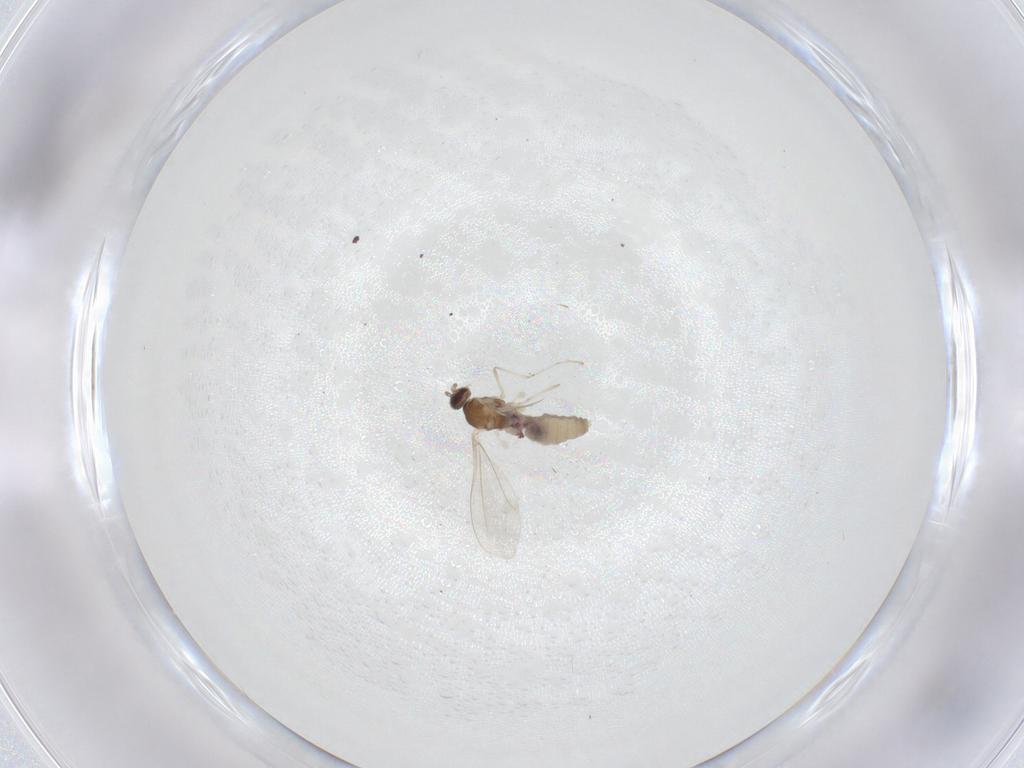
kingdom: Animalia
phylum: Arthropoda
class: Insecta
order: Diptera
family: Cecidomyiidae
